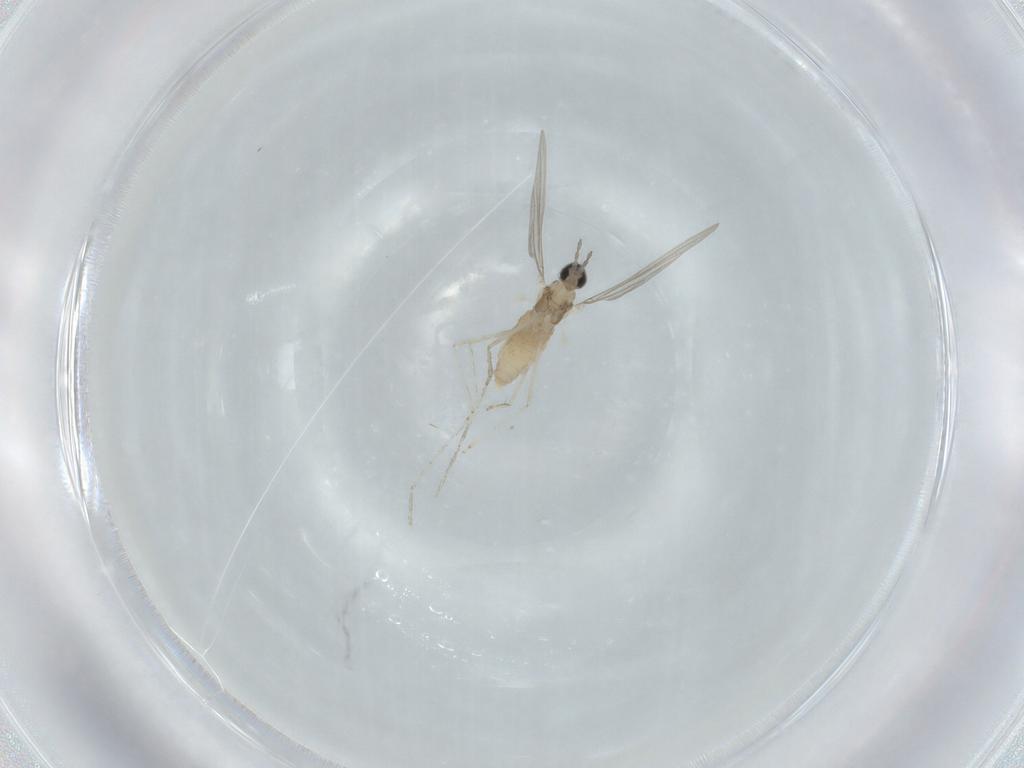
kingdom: Animalia
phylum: Arthropoda
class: Insecta
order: Diptera
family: Cecidomyiidae
